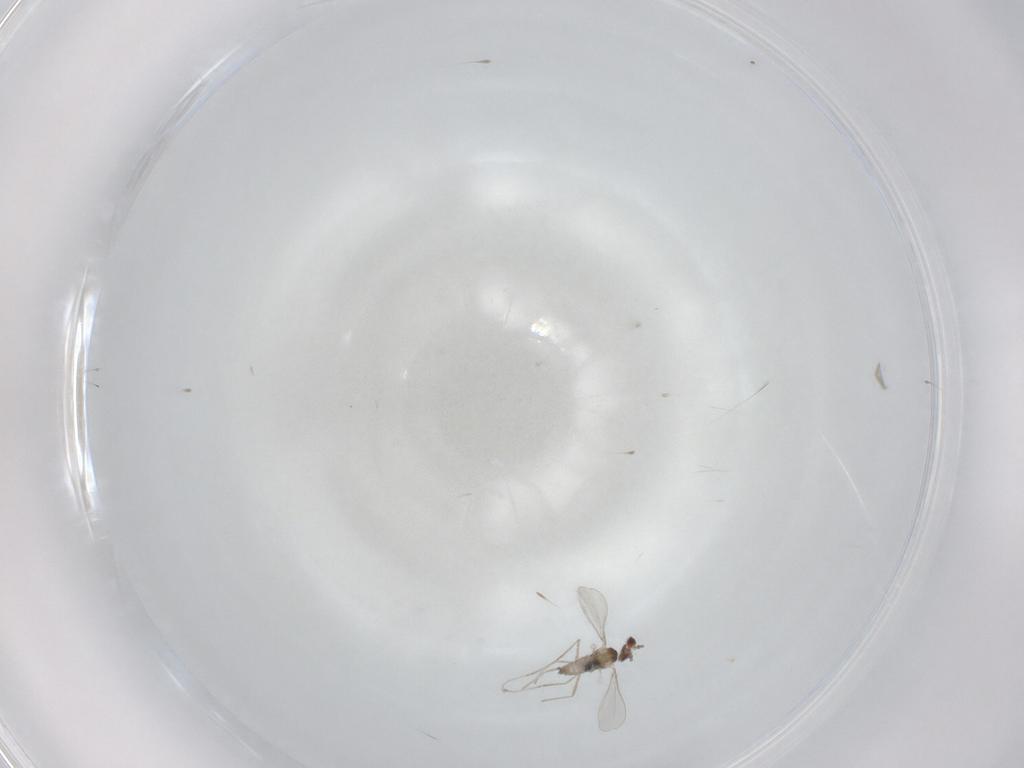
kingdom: Animalia
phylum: Arthropoda
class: Insecta
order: Diptera
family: Cecidomyiidae
